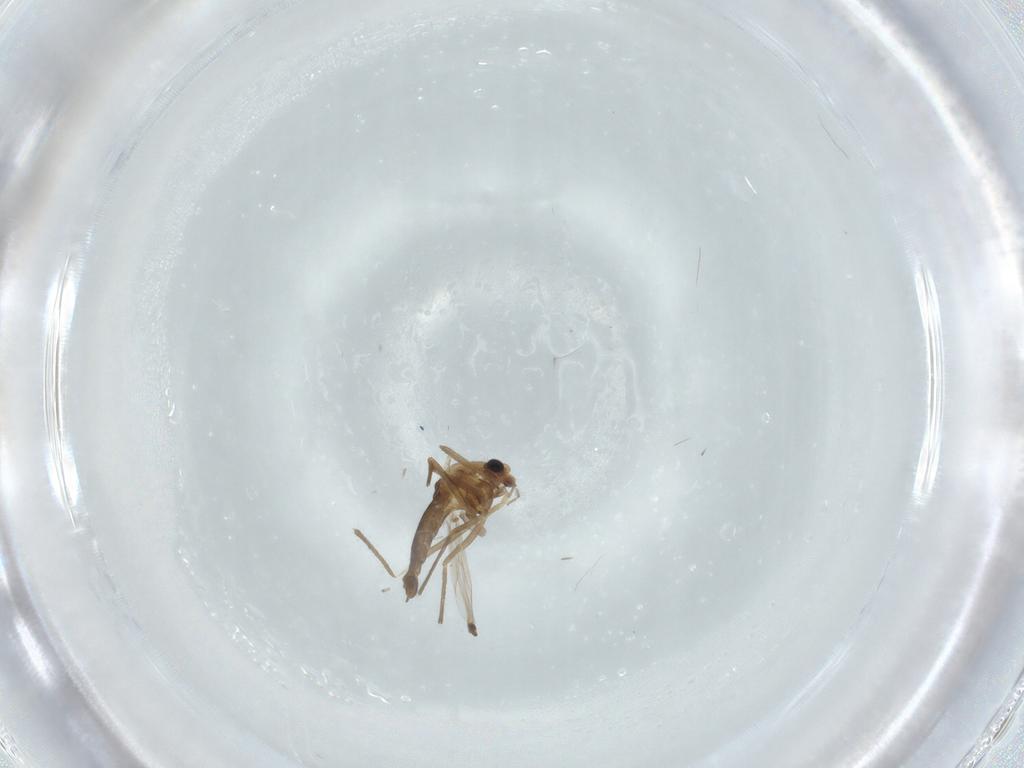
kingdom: Animalia
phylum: Arthropoda
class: Insecta
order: Diptera
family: Chironomidae
